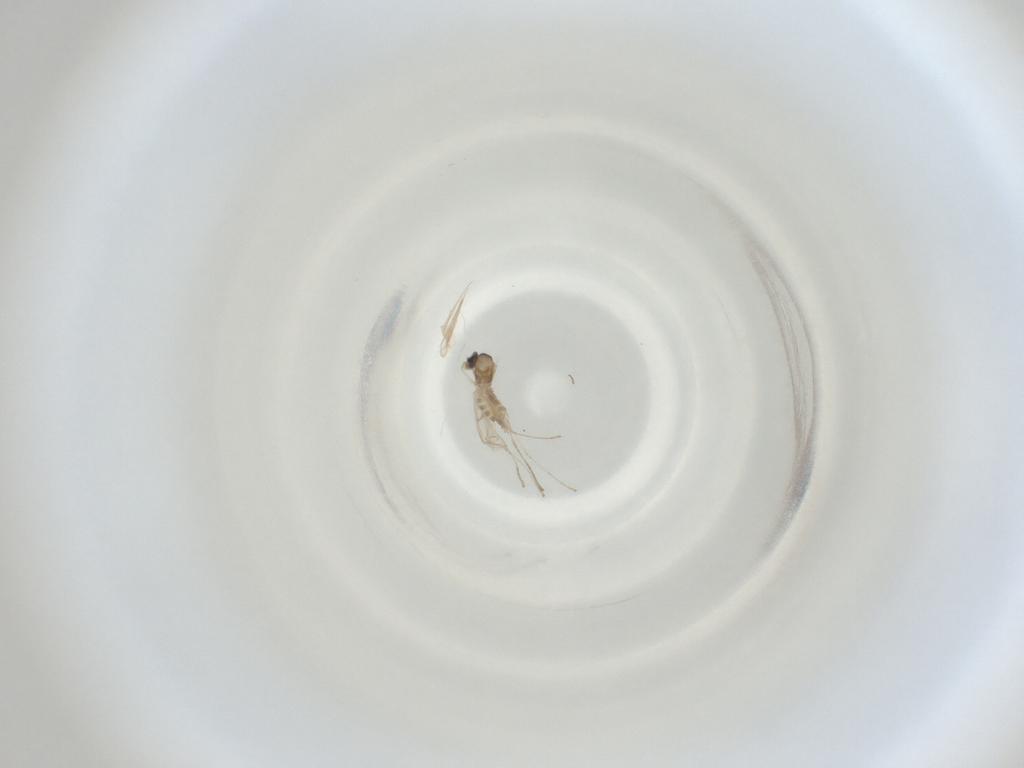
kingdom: Animalia
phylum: Arthropoda
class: Insecta
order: Diptera
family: Cecidomyiidae
